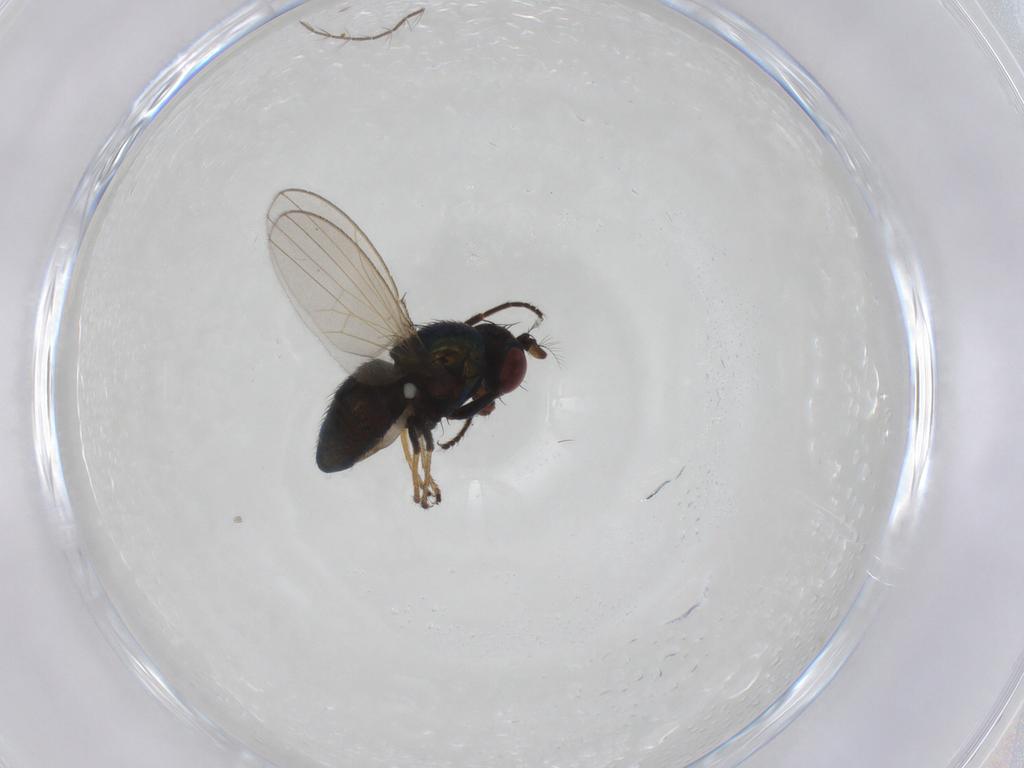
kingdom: Animalia
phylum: Arthropoda
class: Insecta
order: Diptera
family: Ephydridae
